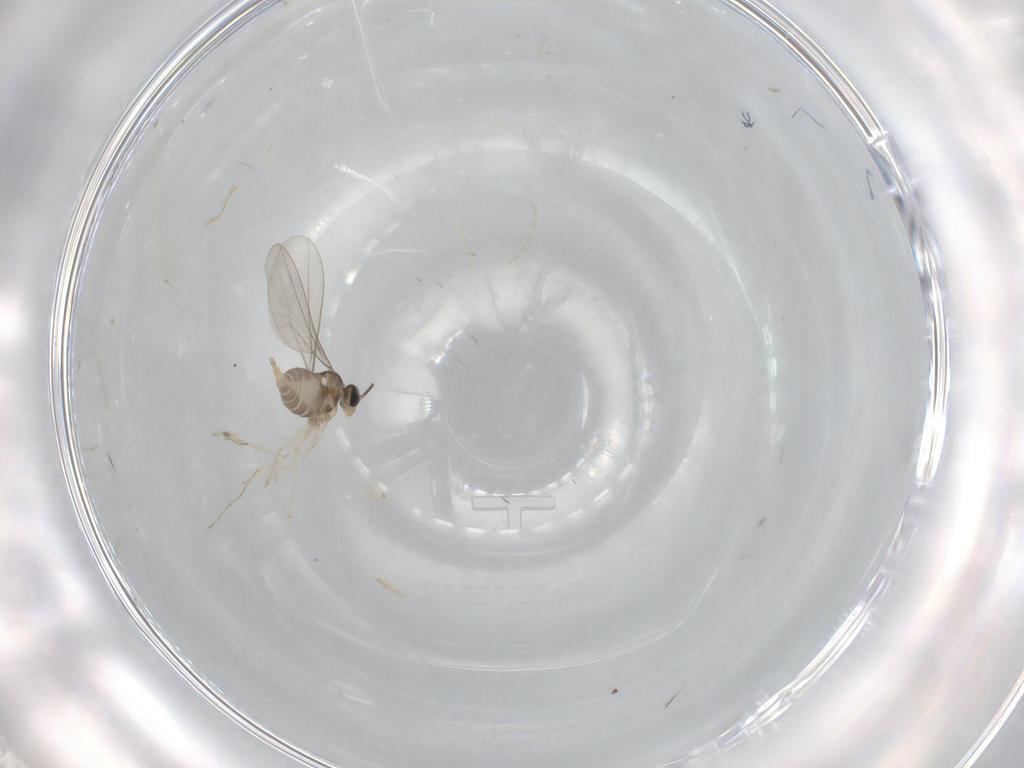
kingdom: Animalia
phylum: Arthropoda
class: Insecta
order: Diptera
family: Cecidomyiidae
